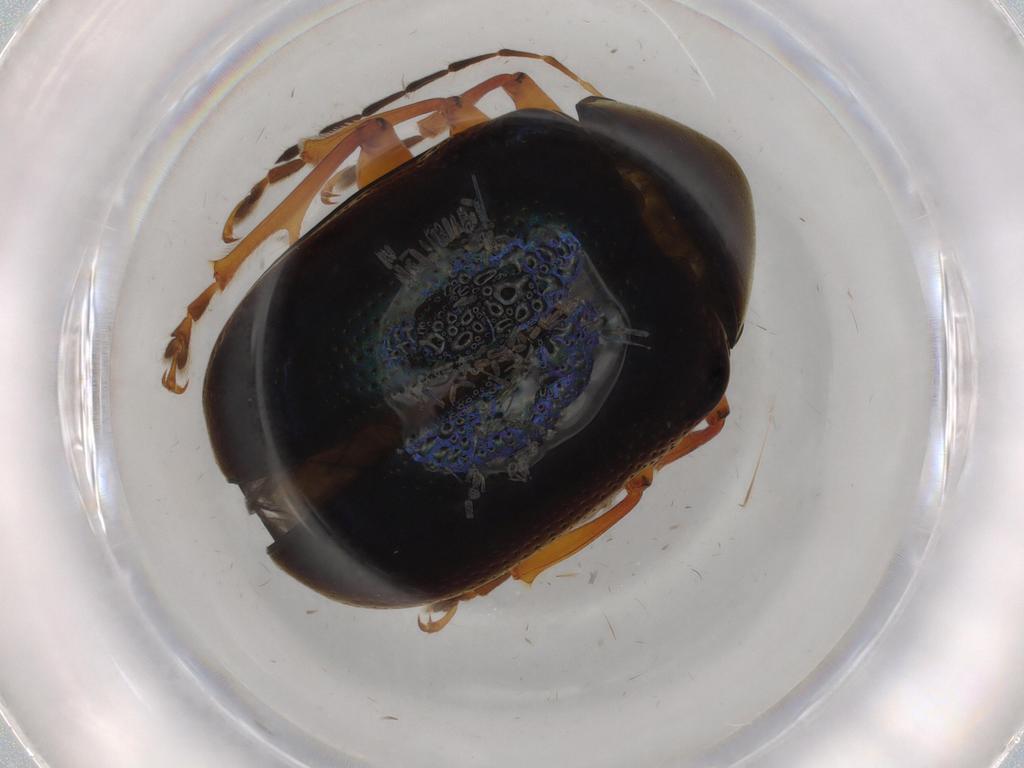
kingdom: Animalia
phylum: Arthropoda
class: Insecta
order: Coleoptera
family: Chrysomelidae
